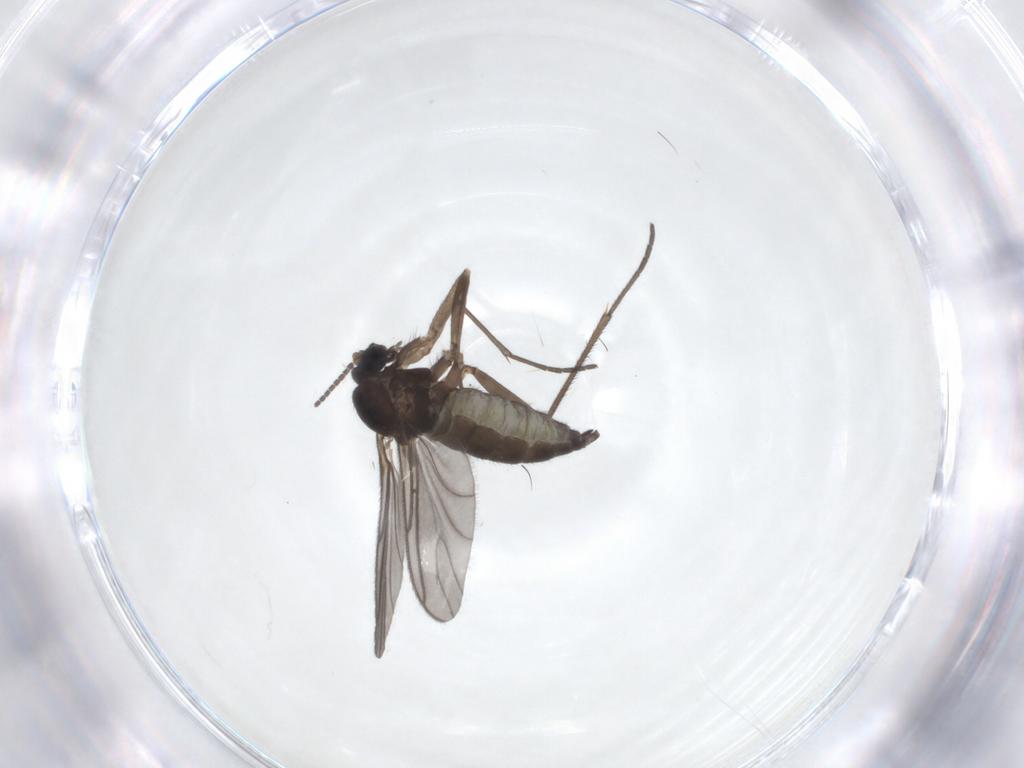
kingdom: Animalia
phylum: Arthropoda
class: Insecta
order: Diptera
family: Sciaridae
